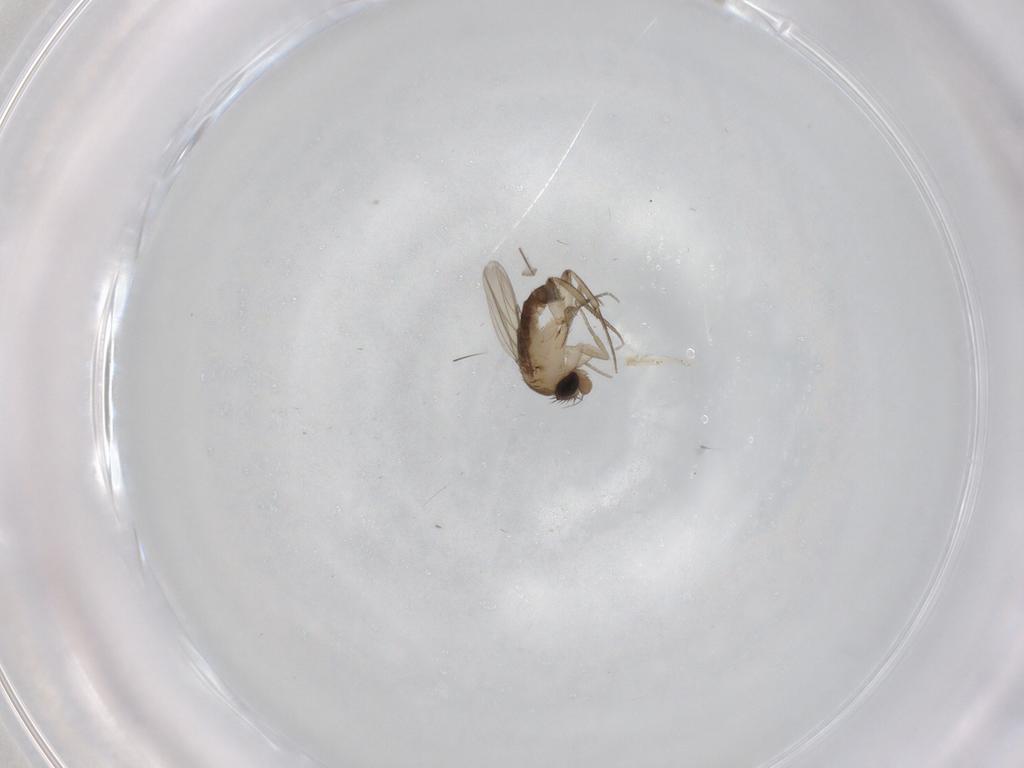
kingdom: Animalia
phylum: Arthropoda
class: Insecta
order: Diptera
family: Phoridae
